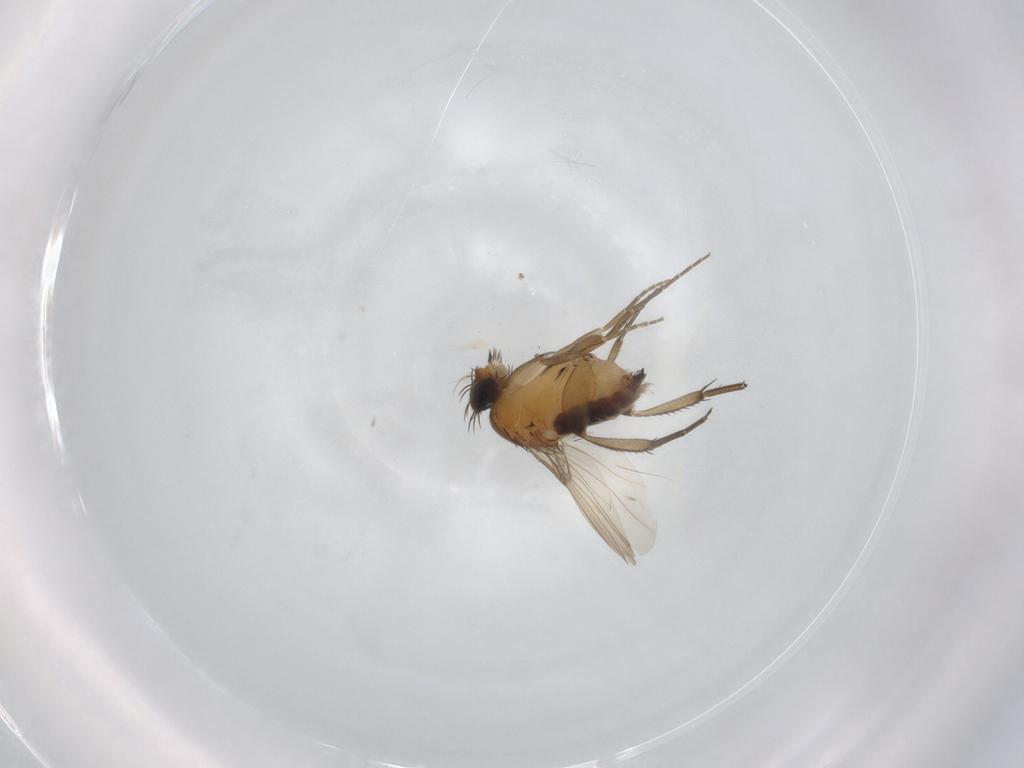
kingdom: Animalia
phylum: Arthropoda
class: Insecta
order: Diptera
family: Phoridae
